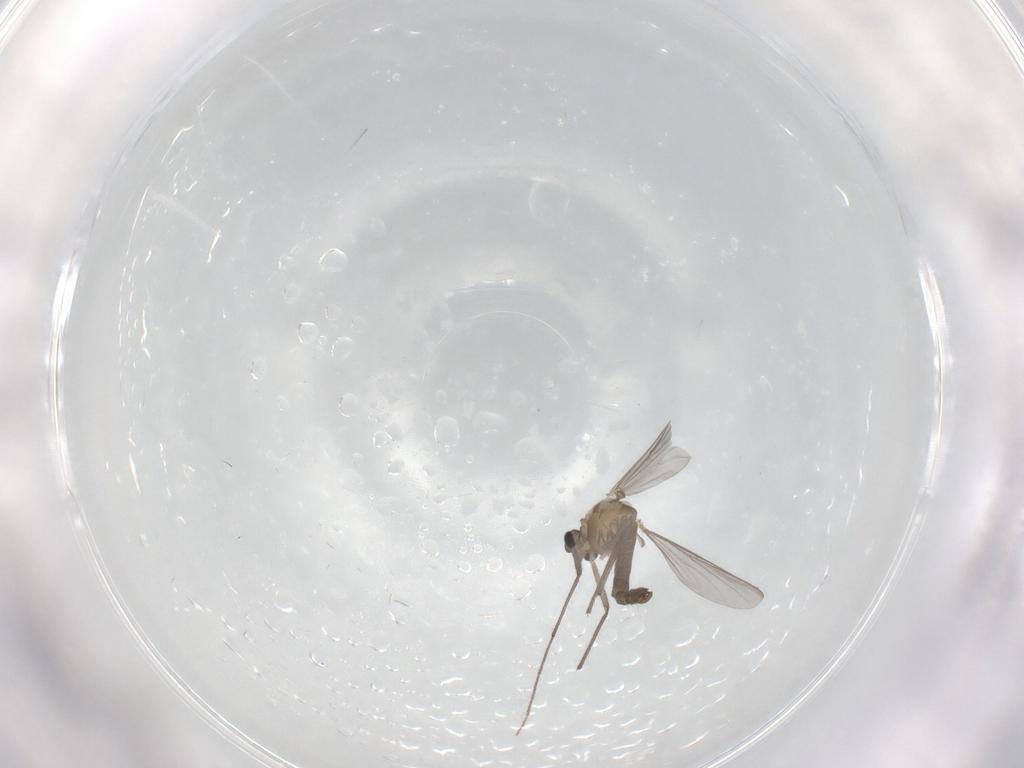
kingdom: Animalia
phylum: Arthropoda
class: Insecta
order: Diptera
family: Chironomidae
